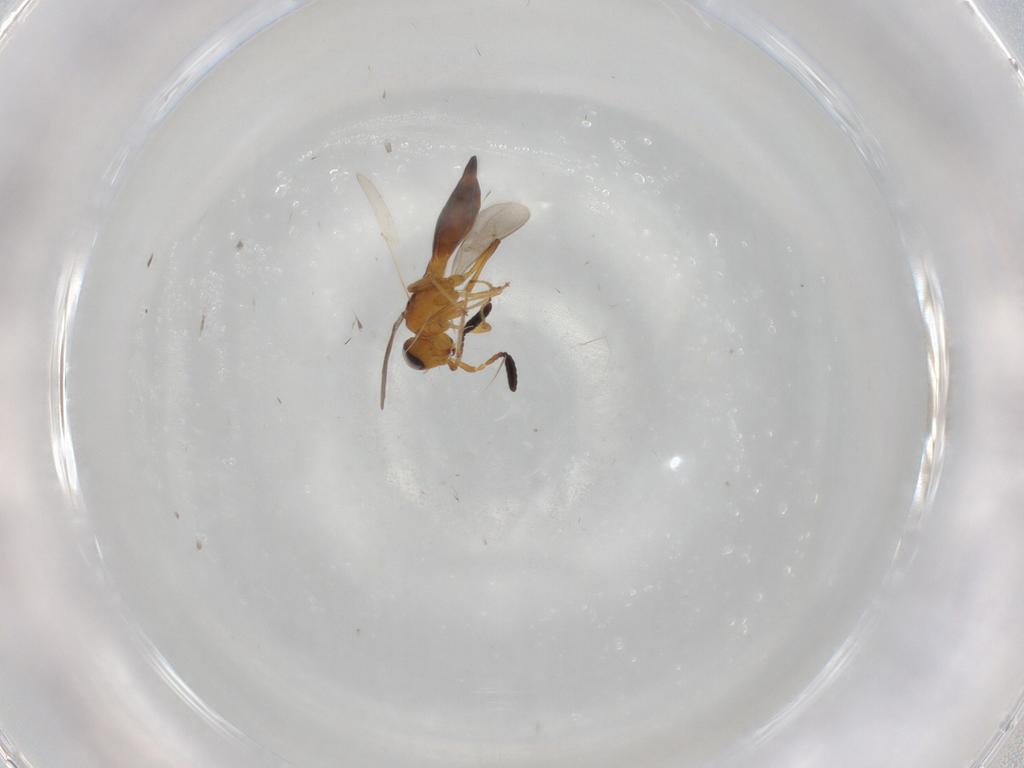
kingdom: Animalia
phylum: Arthropoda
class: Insecta
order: Hymenoptera
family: Scelionidae
